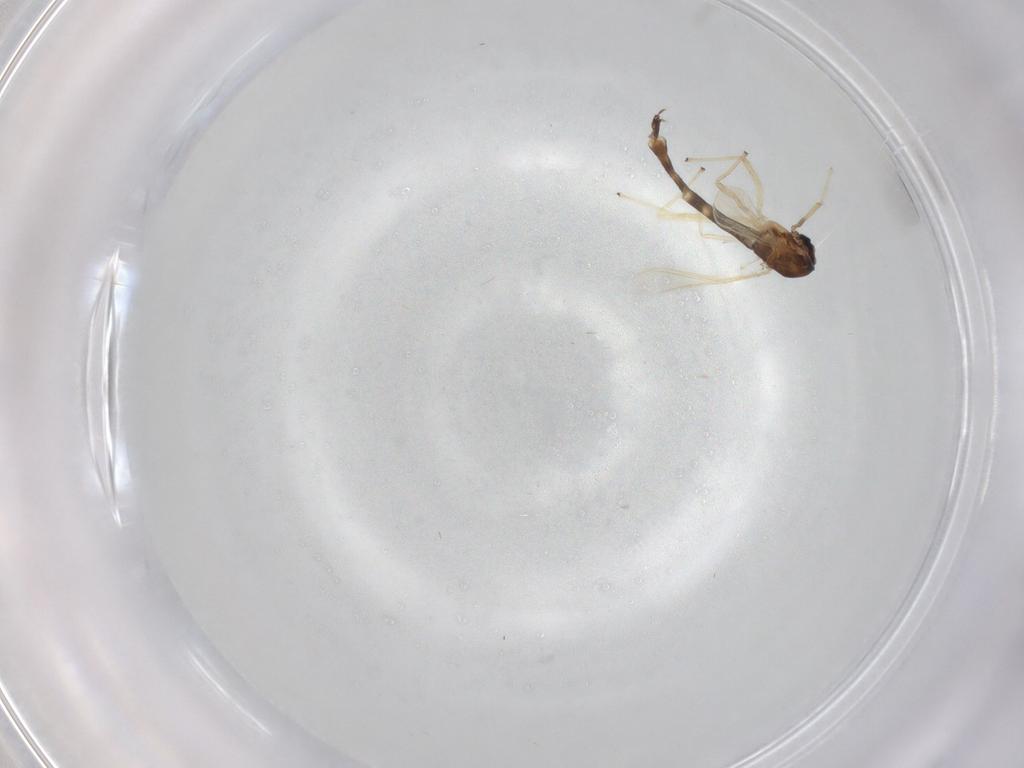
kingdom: Animalia
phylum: Arthropoda
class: Insecta
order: Diptera
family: Chironomidae
